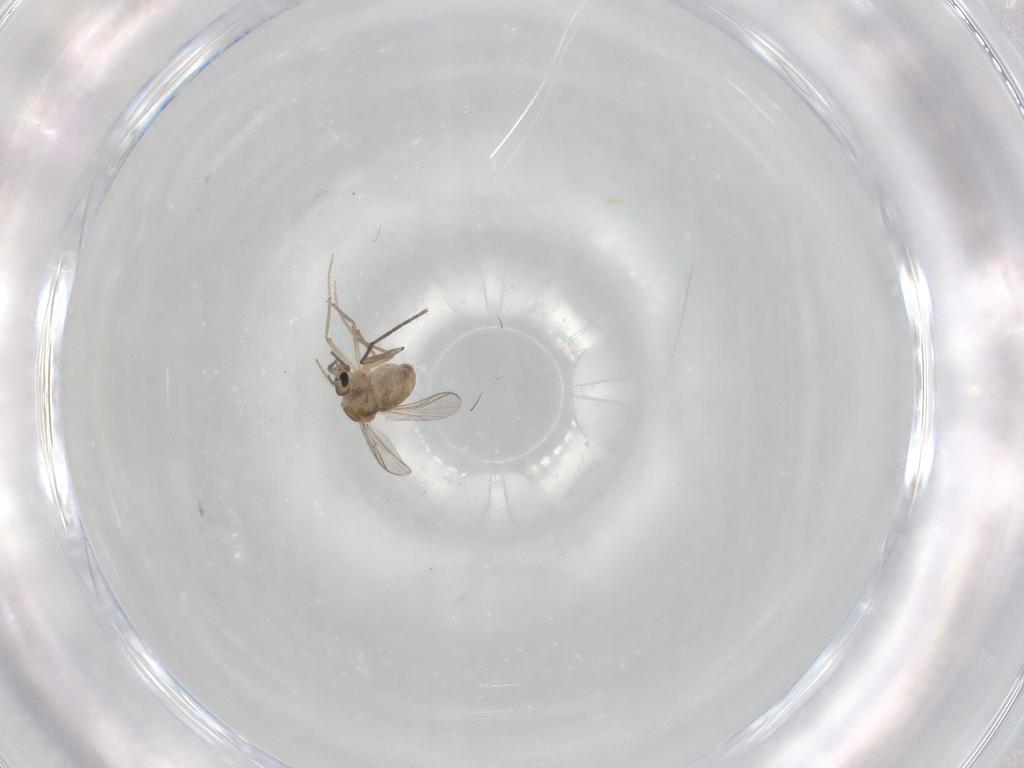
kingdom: Animalia
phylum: Arthropoda
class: Insecta
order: Diptera
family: Chironomidae
